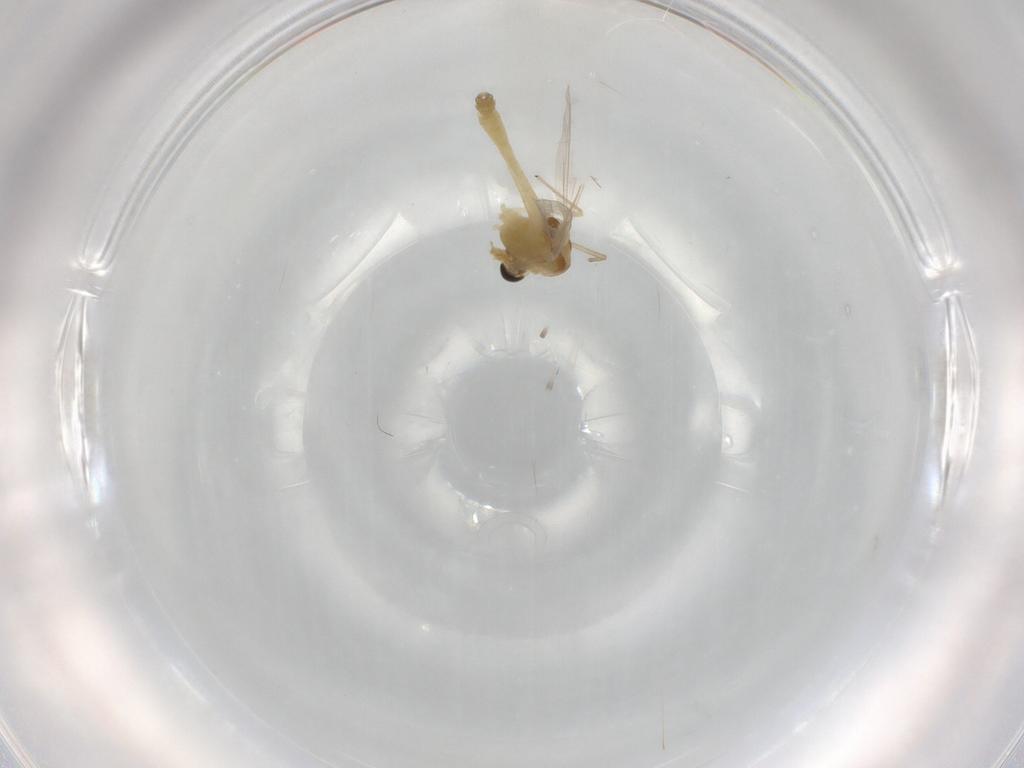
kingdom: Animalia
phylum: Arthropoda
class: Insecta
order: Diptera
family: Chironomidae
